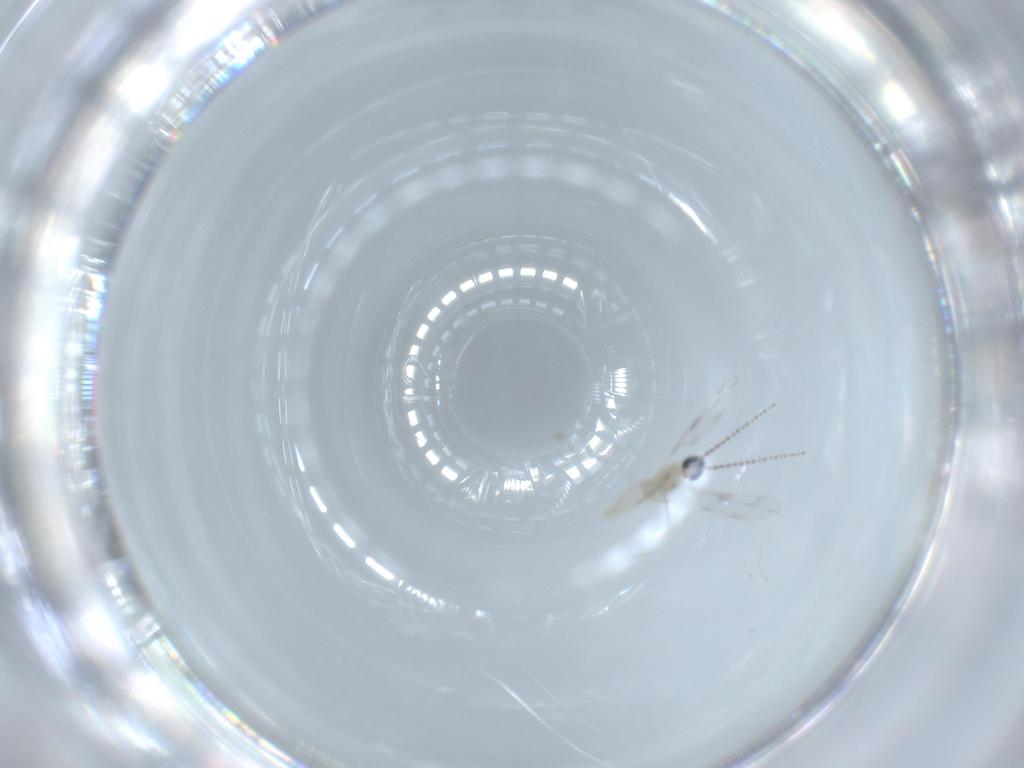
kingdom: Animalia
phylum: Arthropoda
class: Insecta
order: Diptera
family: Cecidomyiidae
